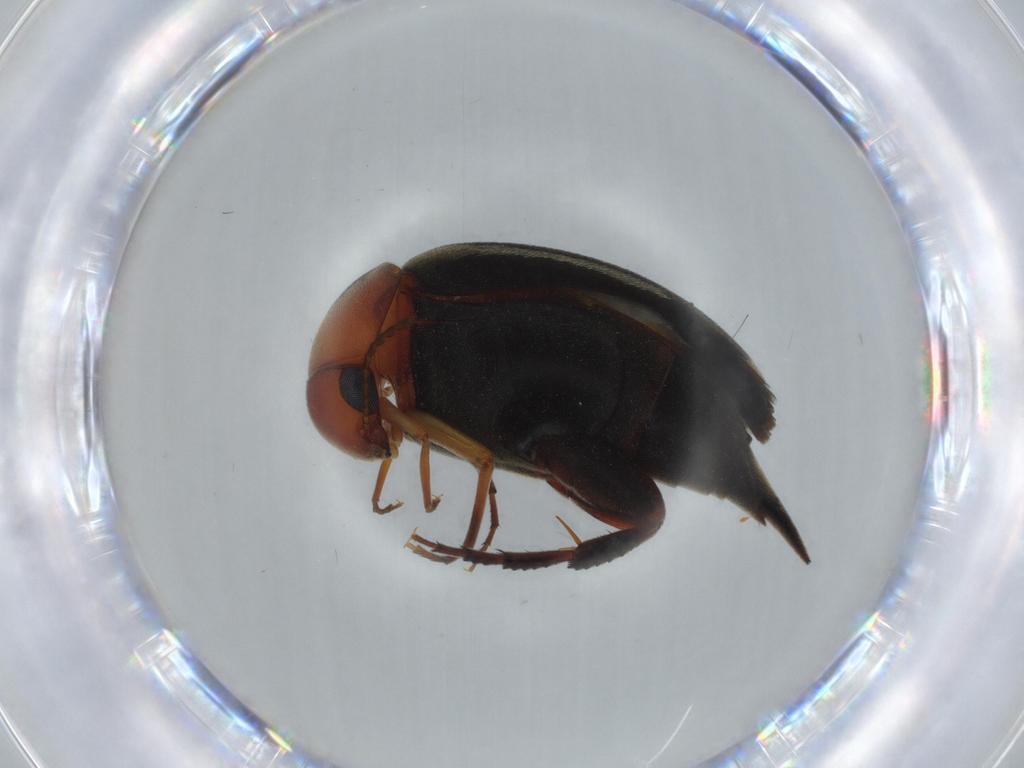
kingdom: Animalia
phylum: Arthropoda
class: Insecta
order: Coleoptera
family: Mordellidae
